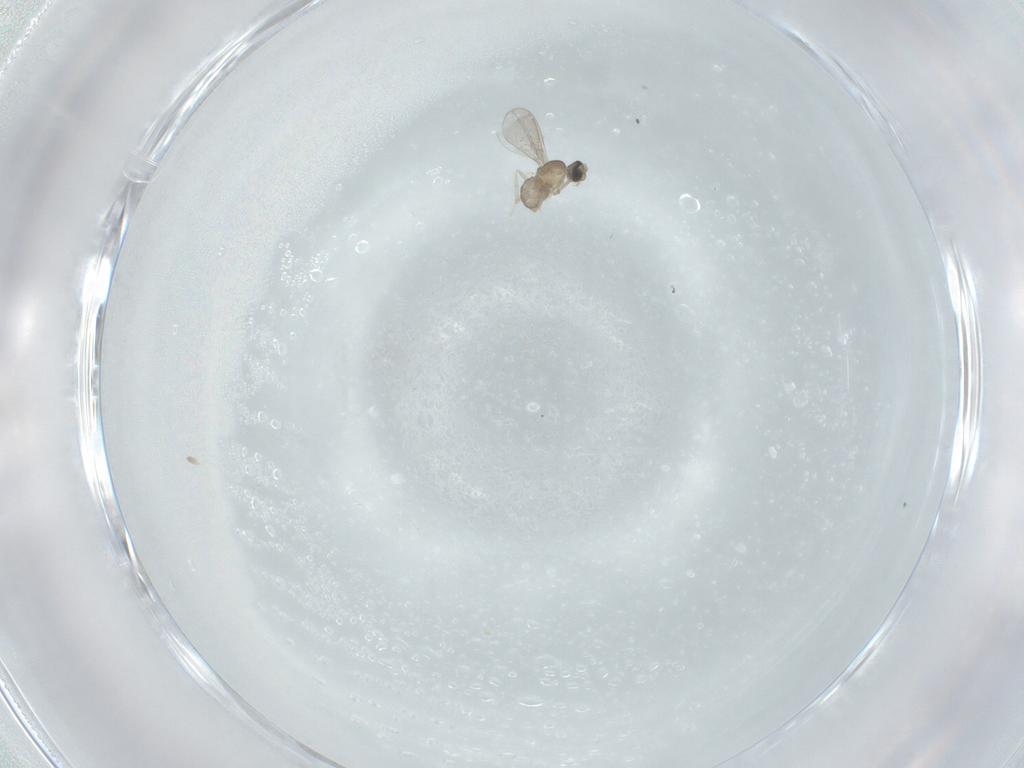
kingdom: Animalia
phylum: Arthropoda
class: Insecta
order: Diptera
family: Cecidomyiidae
